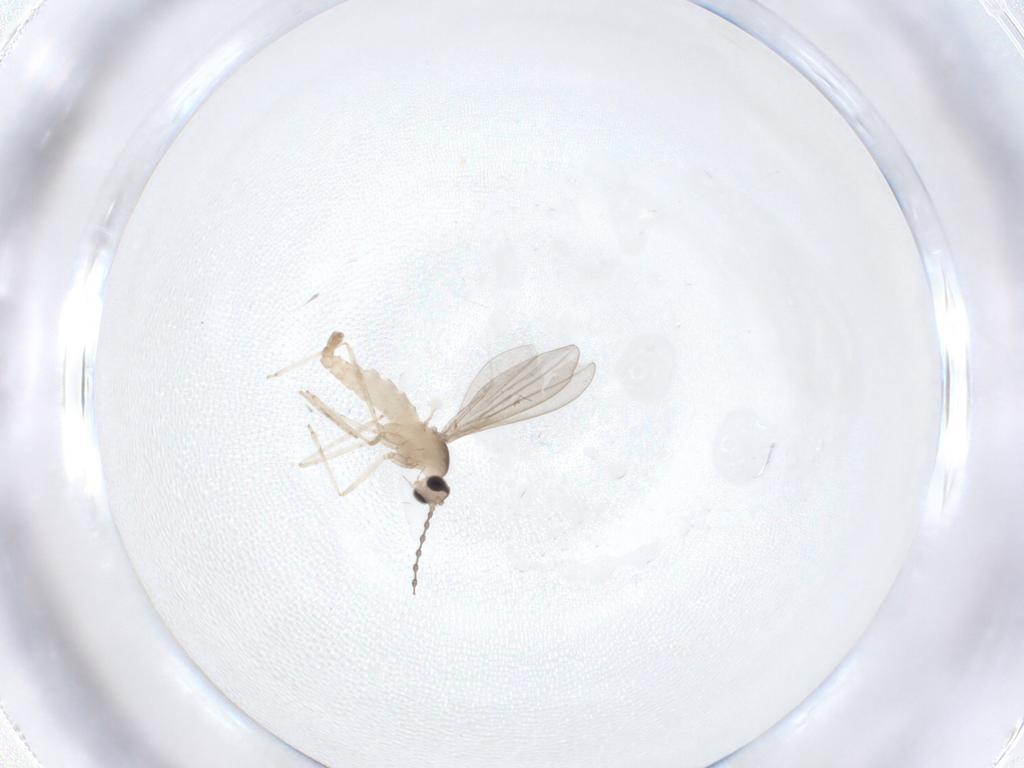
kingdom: Animalia
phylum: Arthropoda
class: Insecta
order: Diptera
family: Cecidomyiidae
